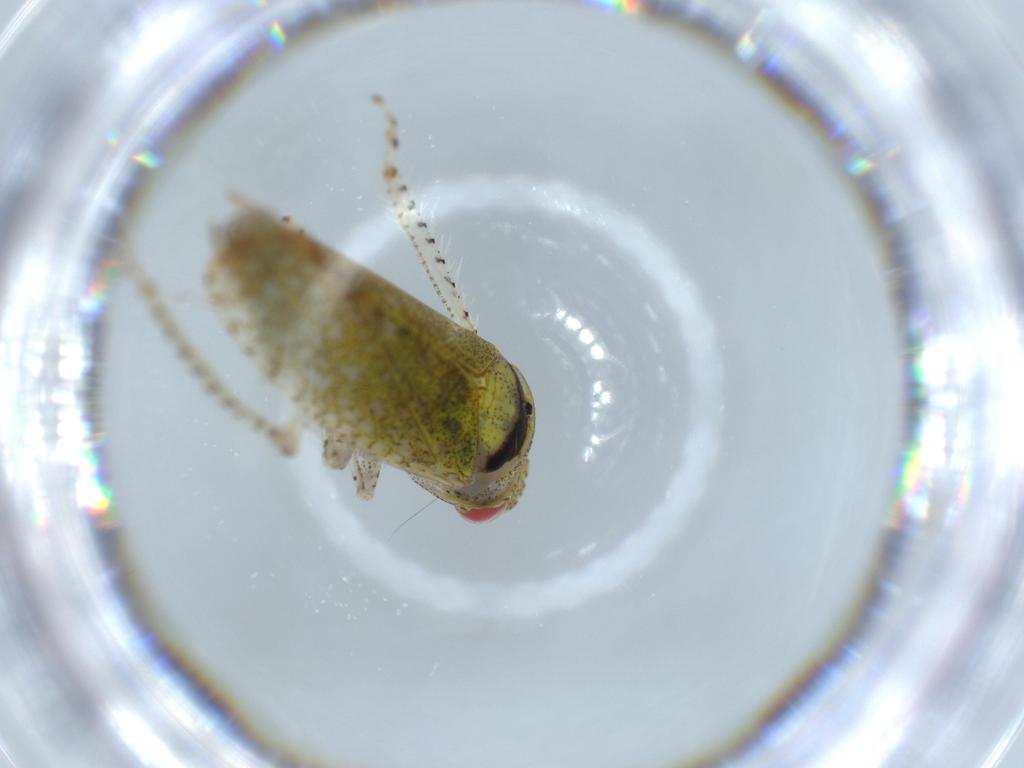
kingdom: Animalia
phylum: Arthropoda
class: Insecta
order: Hemiptera
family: Cicadellidae
